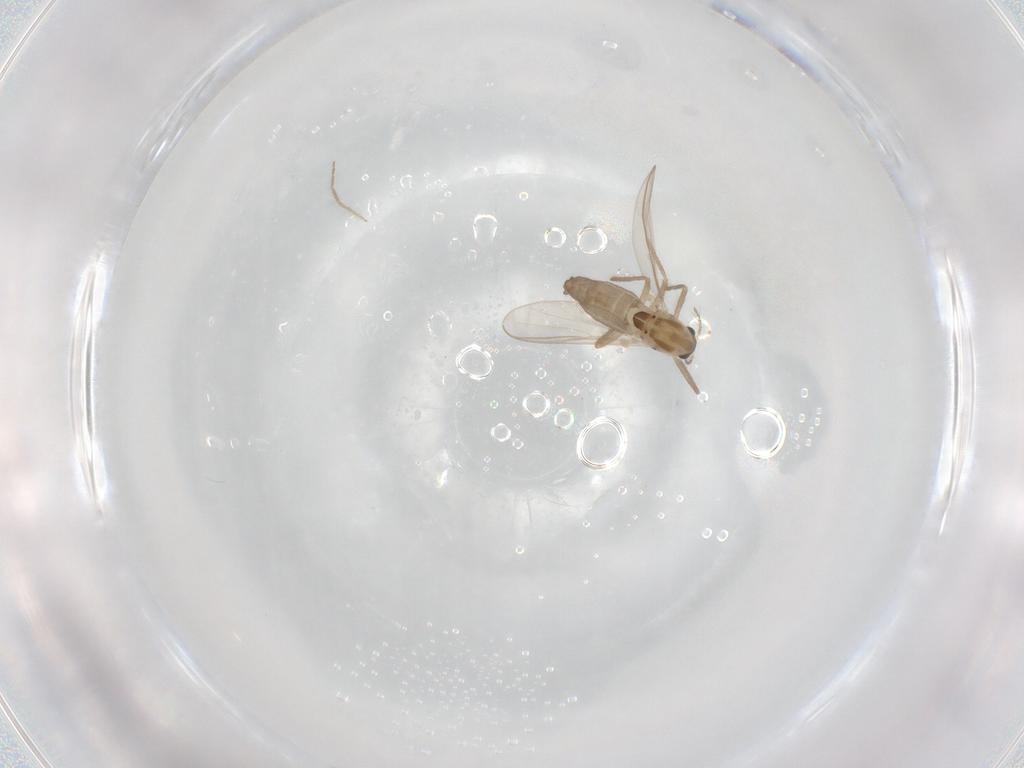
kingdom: Animalia
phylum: Arthropoda
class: Insecta
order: Diptera
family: Chironomidae
